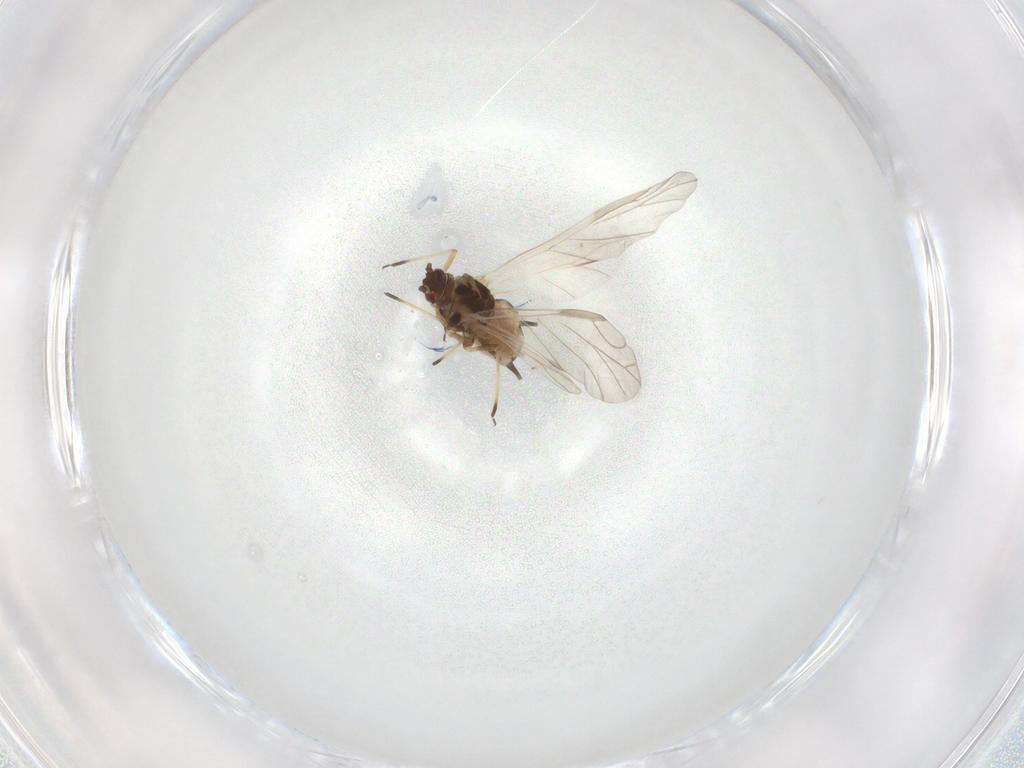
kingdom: Animalia
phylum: Arthropoda
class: Insecta
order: Hemiptera
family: Aphididae
